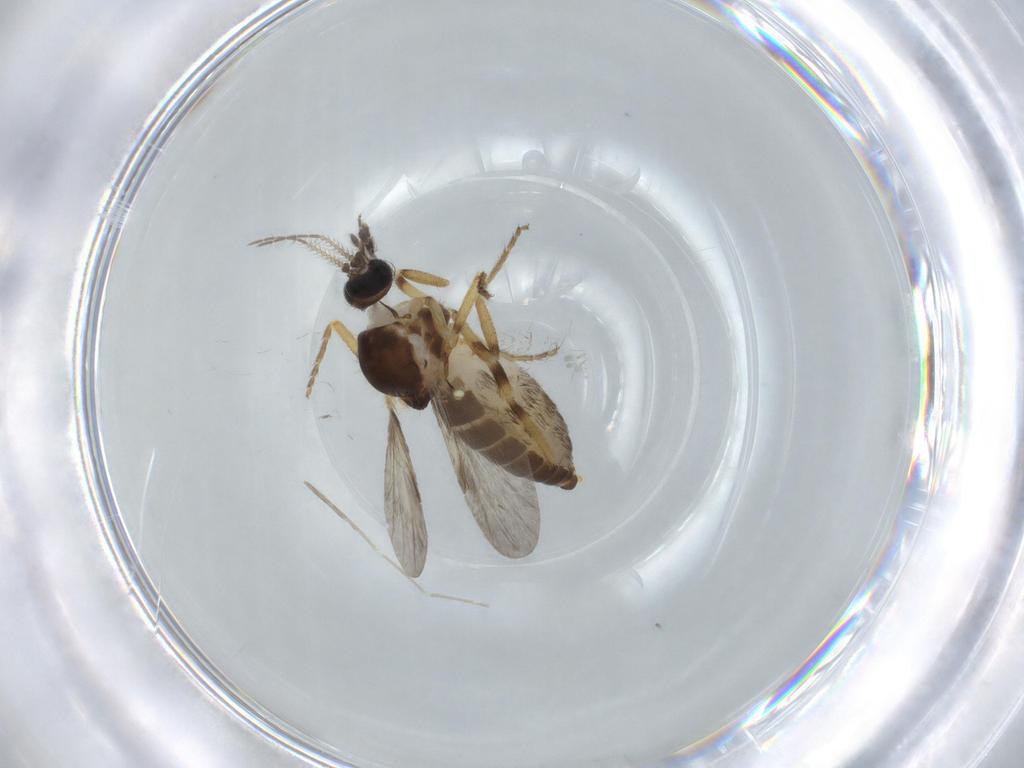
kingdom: Animalia
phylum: Arthropoda
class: Insecta
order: Diptera
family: Ceratopogonidae
